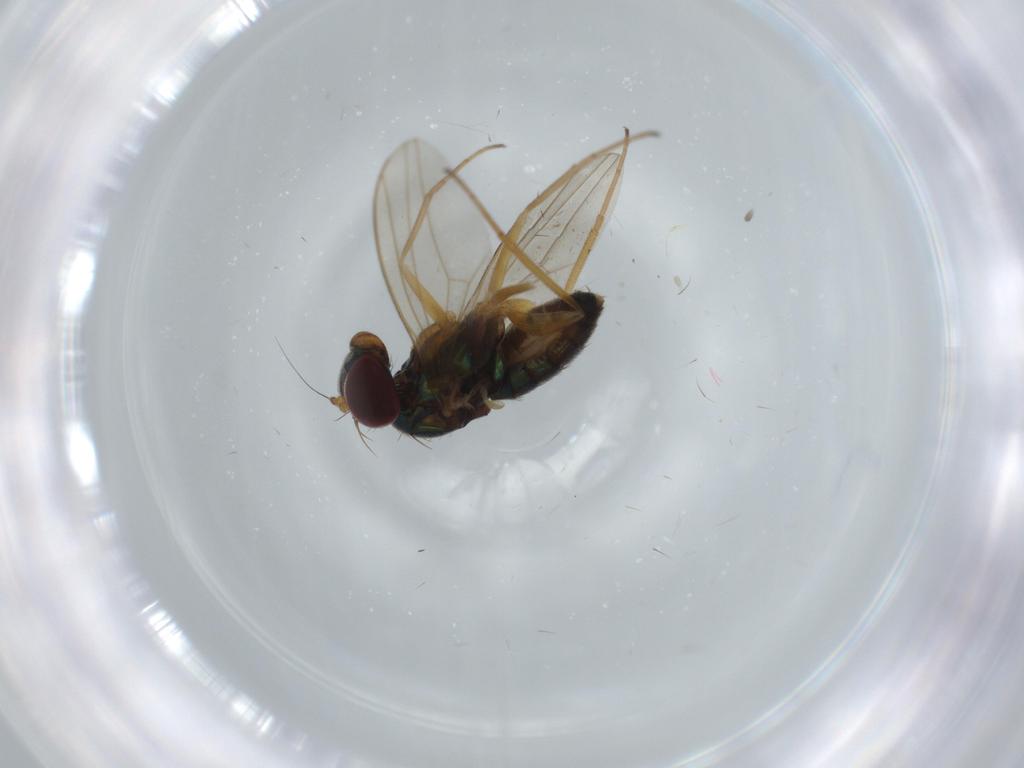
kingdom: Animalia
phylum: Arthropoda
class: Insecta
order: Diptera
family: Dolichopodidae
